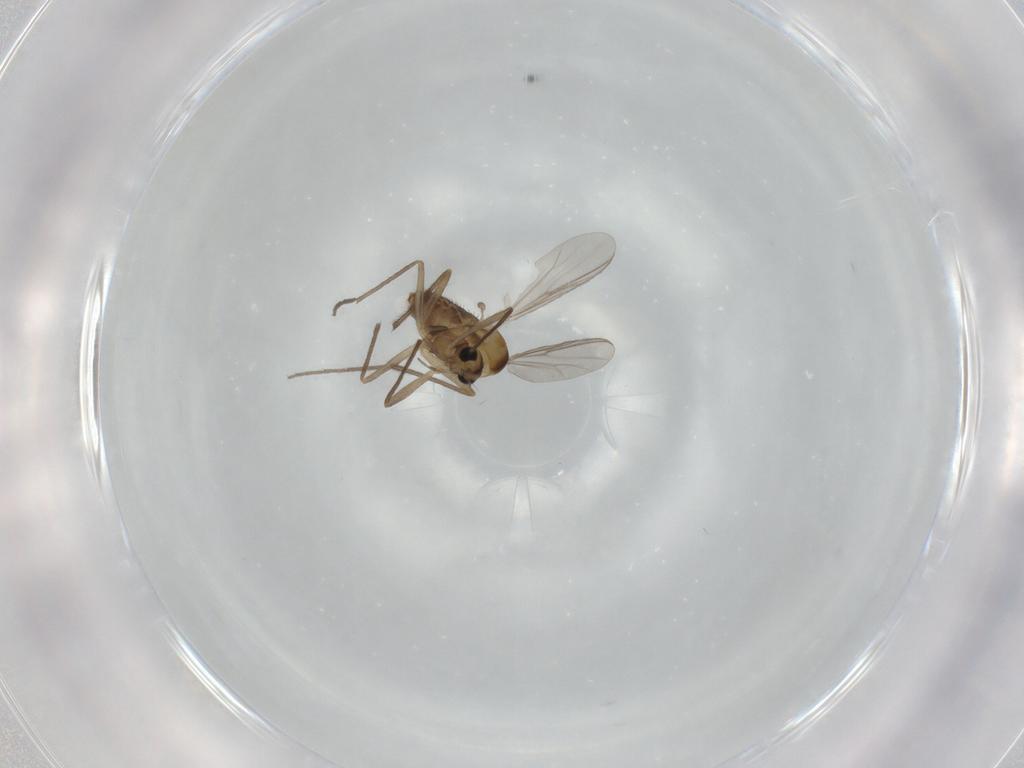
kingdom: Animalia
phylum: Arthropoda
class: Insecta
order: Diptera
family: Chironomidae
